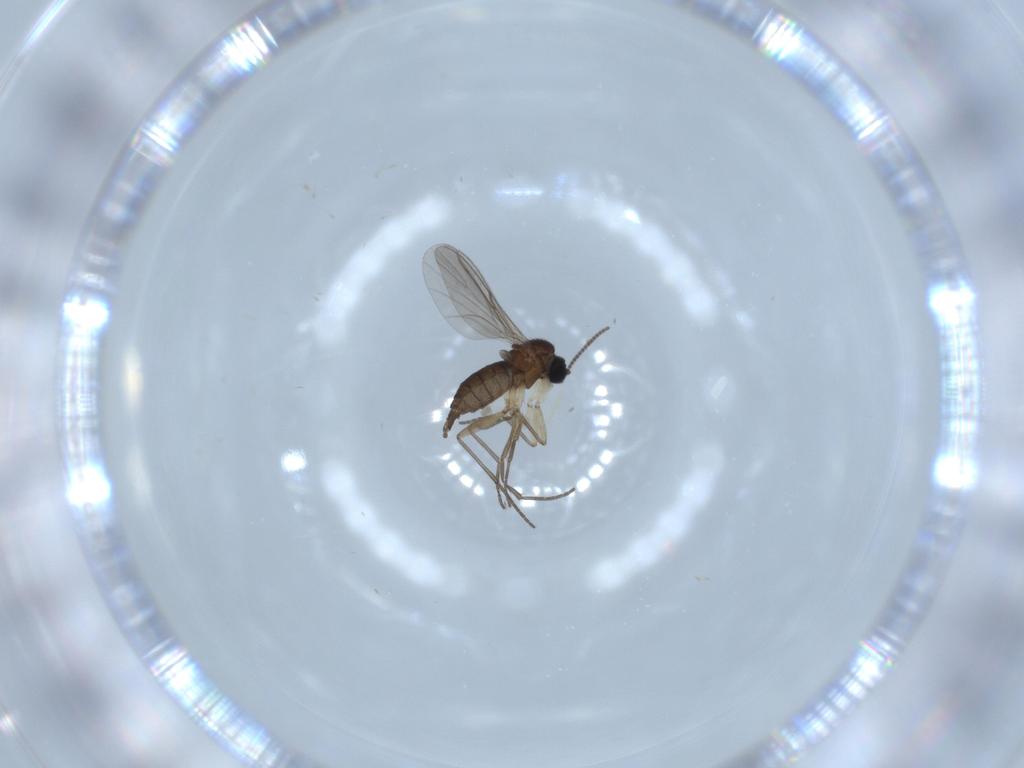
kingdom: Animalia
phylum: Arthropoda
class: Insecta
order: Diptera
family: Sciaridae
